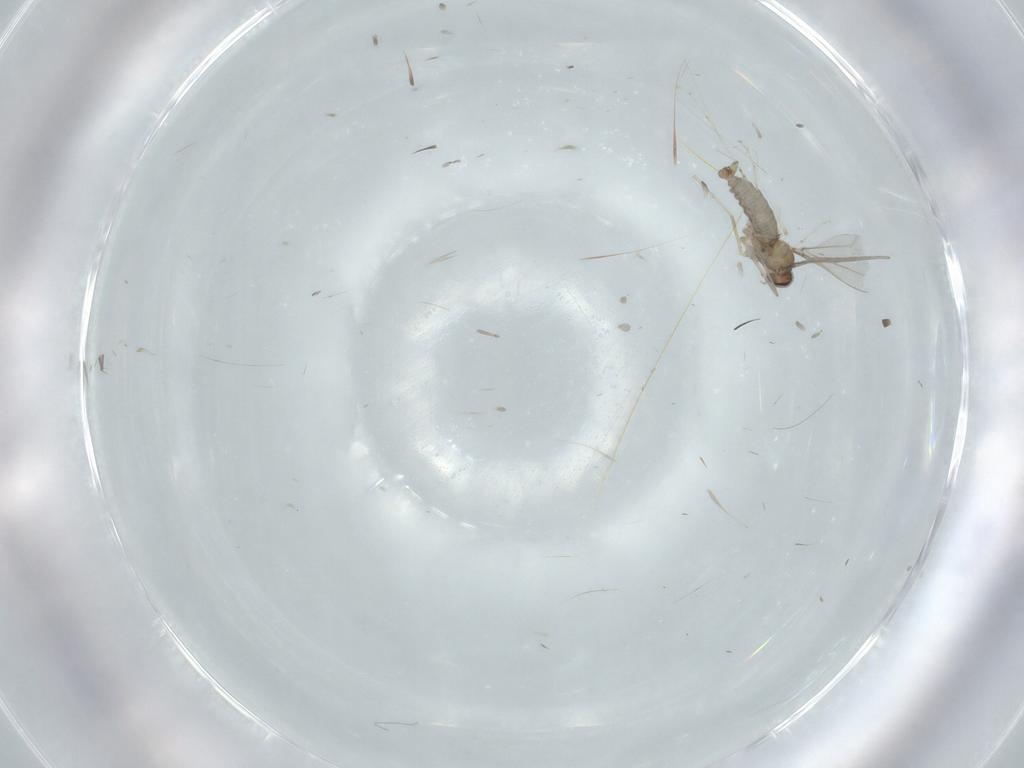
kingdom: Animalia
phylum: Arthropoda
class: Insecta
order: Diptera
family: Cecidomyiidae
